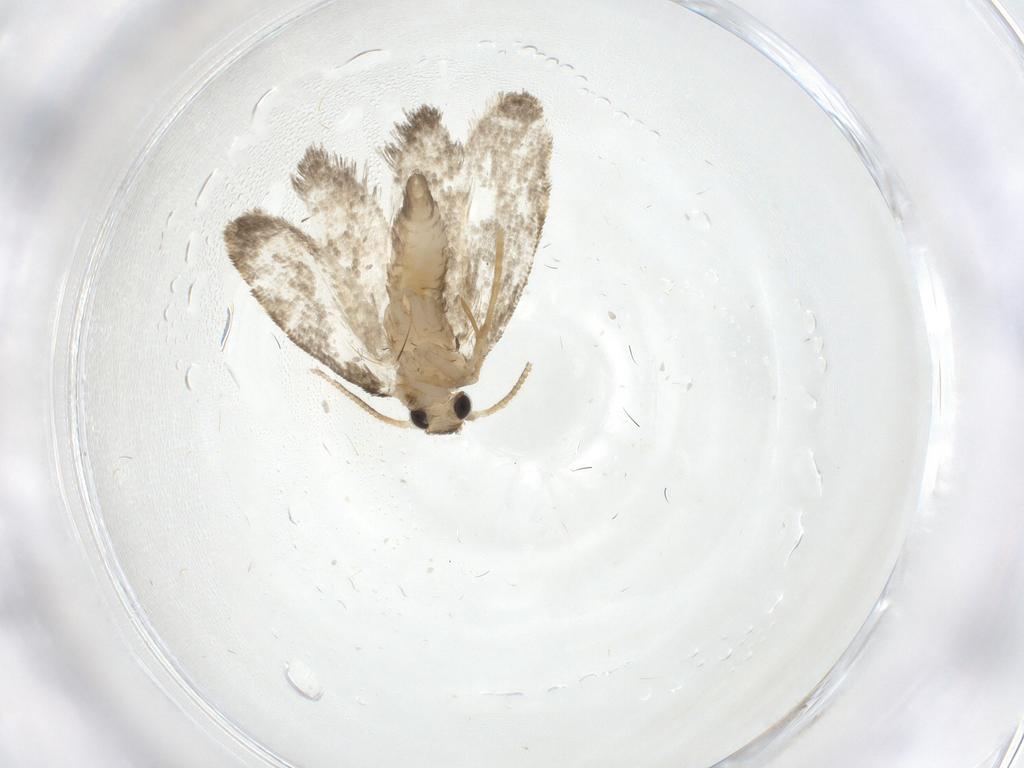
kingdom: Animalia
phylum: Arthropoda
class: Insecta
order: Lepidoptera
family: Psychidae
